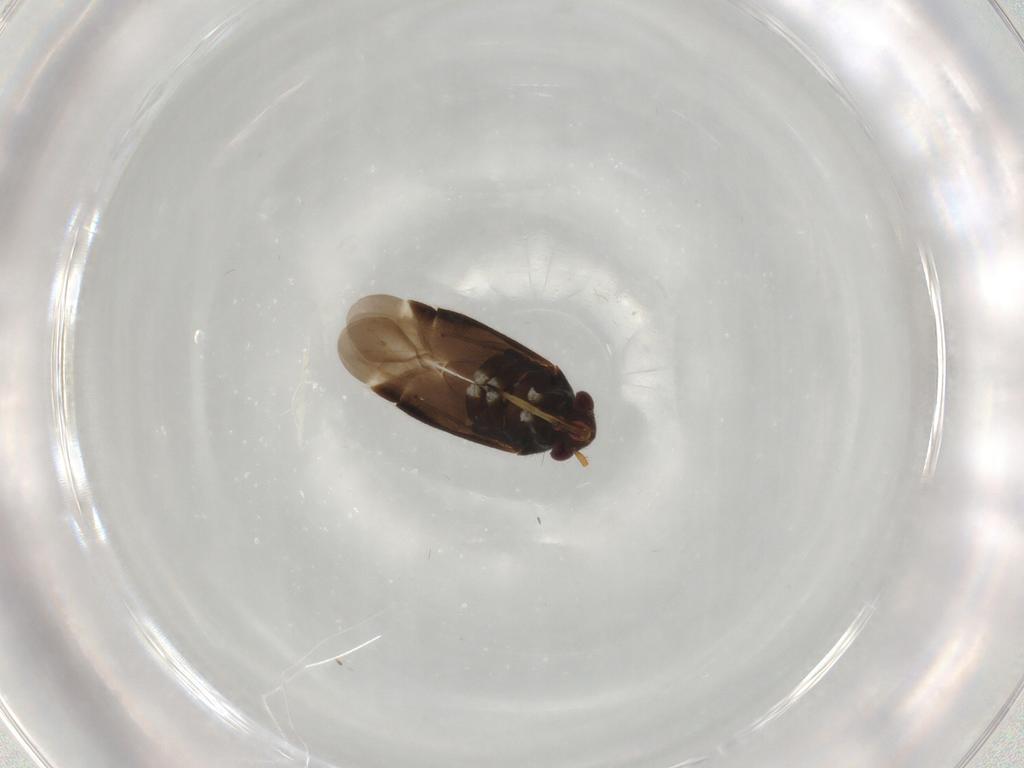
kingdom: Animalia
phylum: Arthropoda
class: Insecta
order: Hemiptera
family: Miridae
